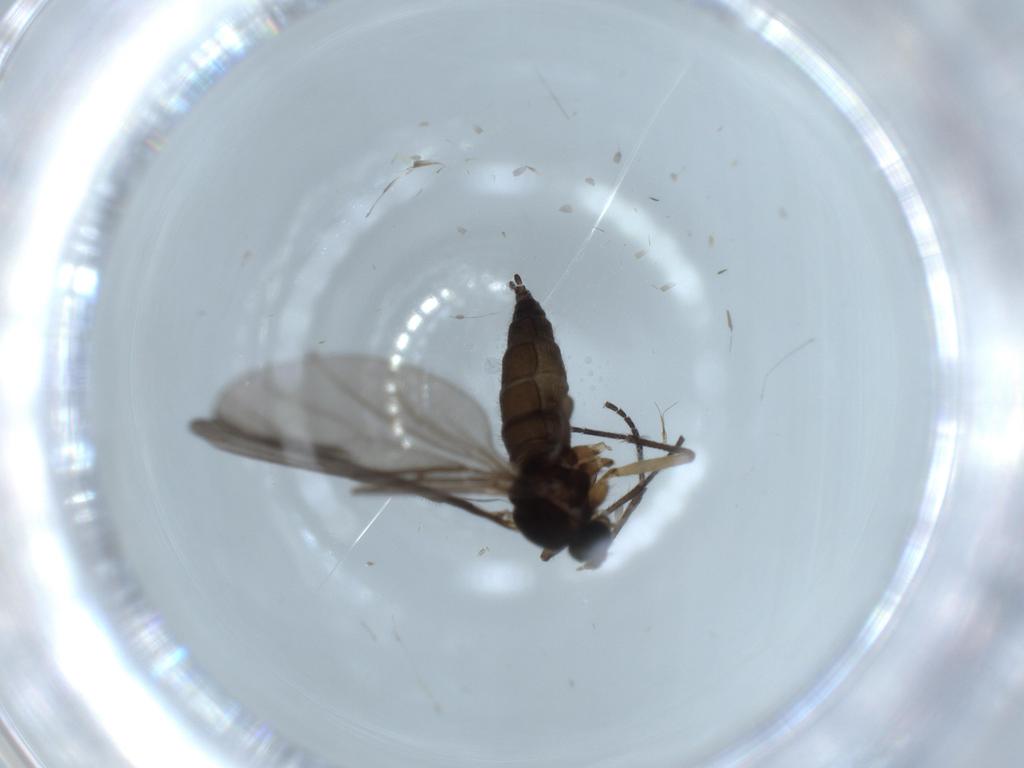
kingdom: Animalia
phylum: Arthropoda
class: Insecta
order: Diptera
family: Sciaridae
